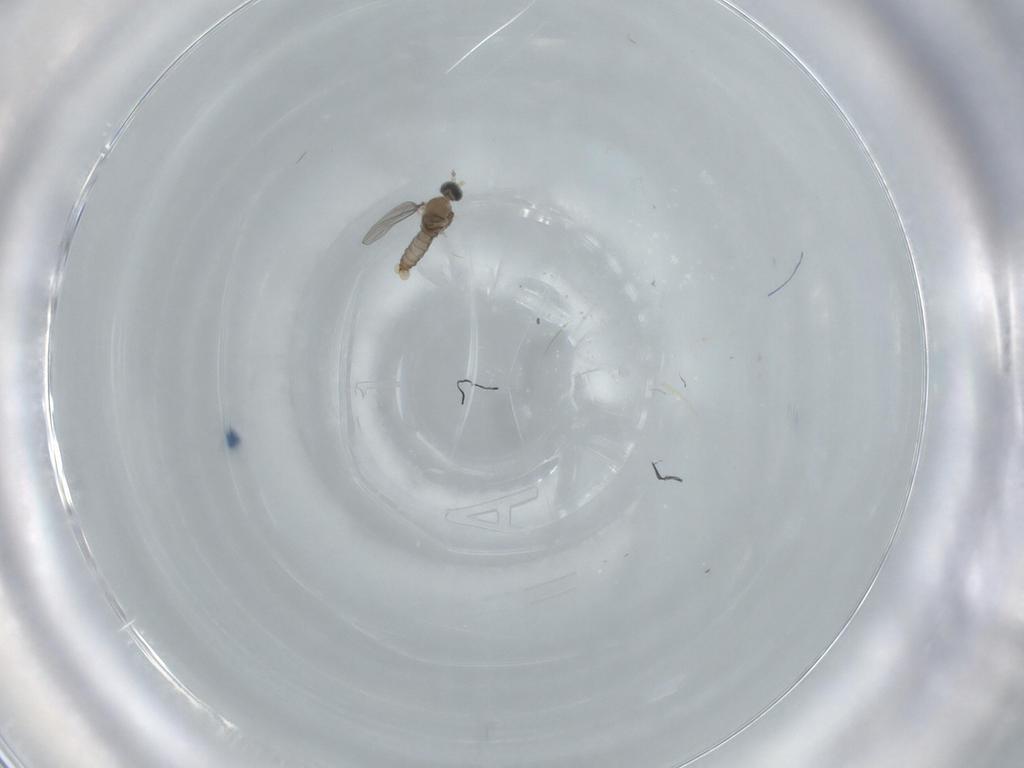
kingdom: Animalia
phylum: Arthropoda
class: Insecta
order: Diptera
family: Cecidomyiidae
